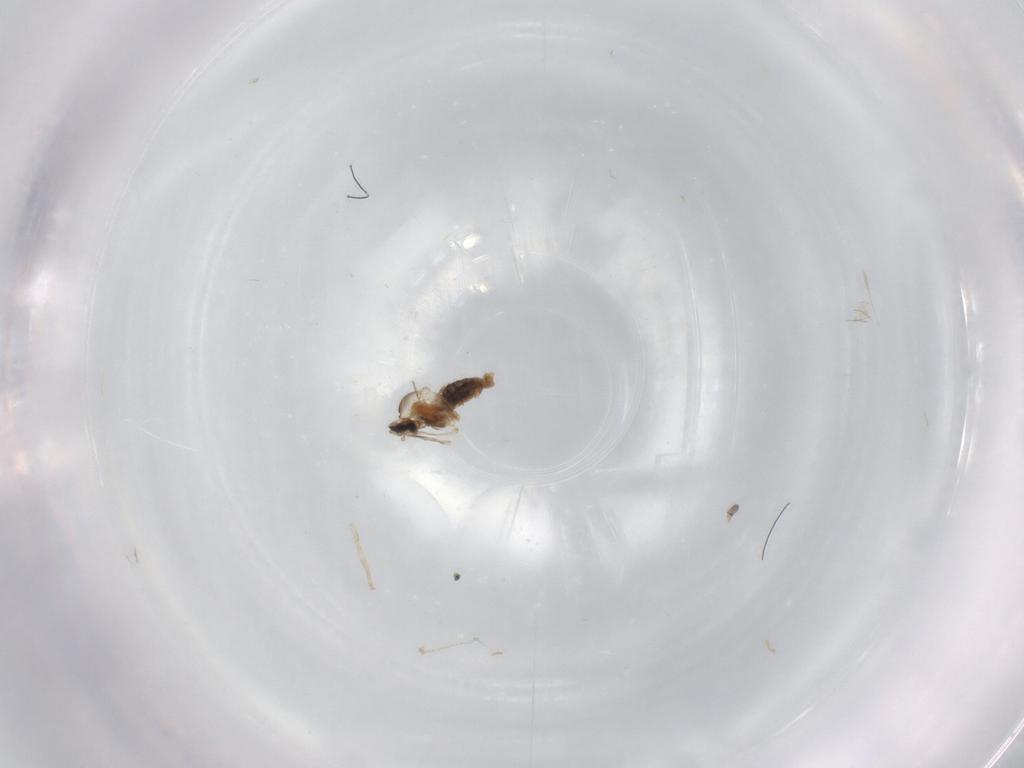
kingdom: Animalia
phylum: Arthropoda
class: Insecta
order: Diptera
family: Cecidomyiidae
